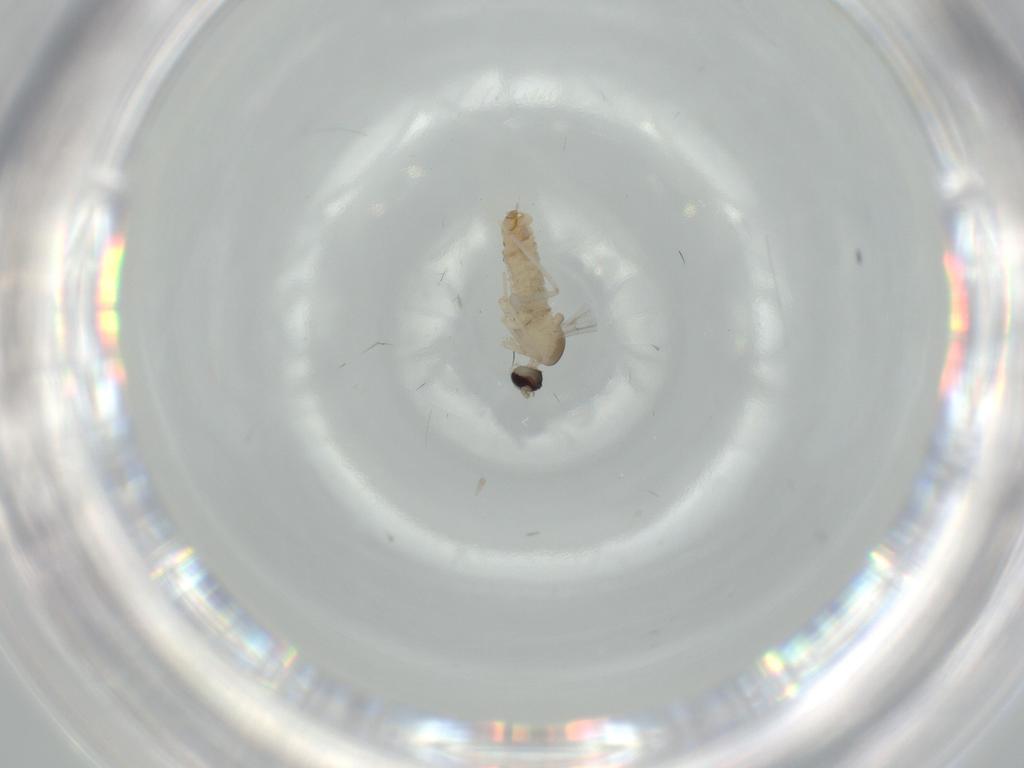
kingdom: Animalia
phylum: Arthropoda
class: Insecta
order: Diptera
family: Cecidomyiidae
